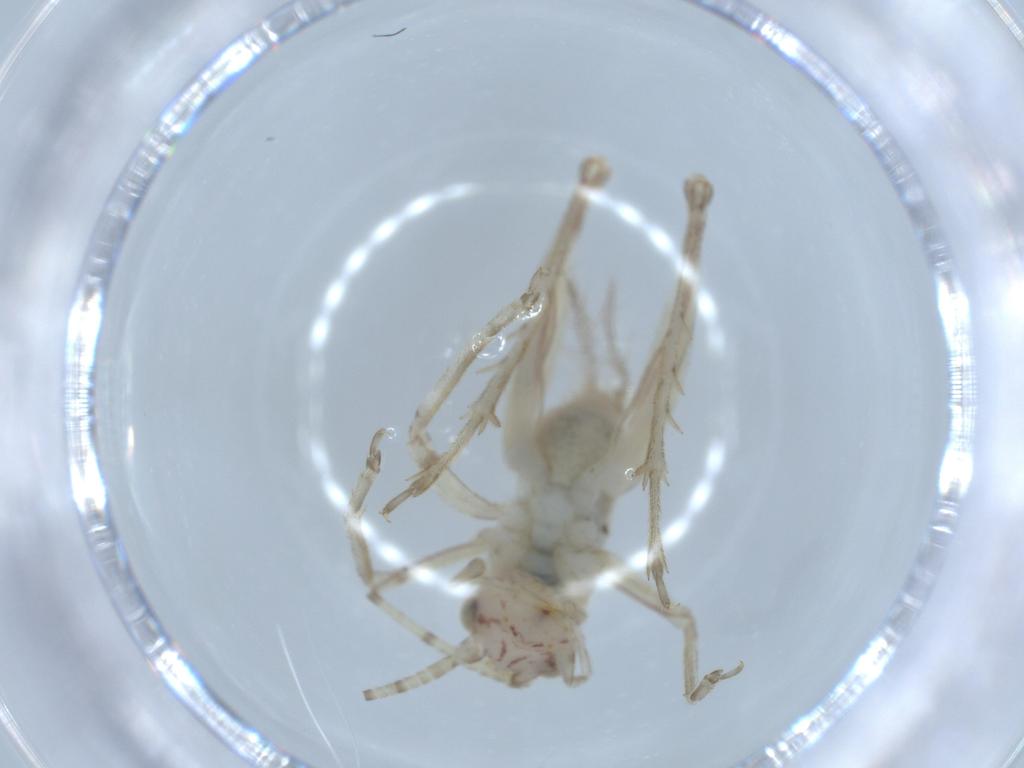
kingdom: Animalia
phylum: Arthropoda
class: Insecta
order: Orthoptera
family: Trigonidiidae
